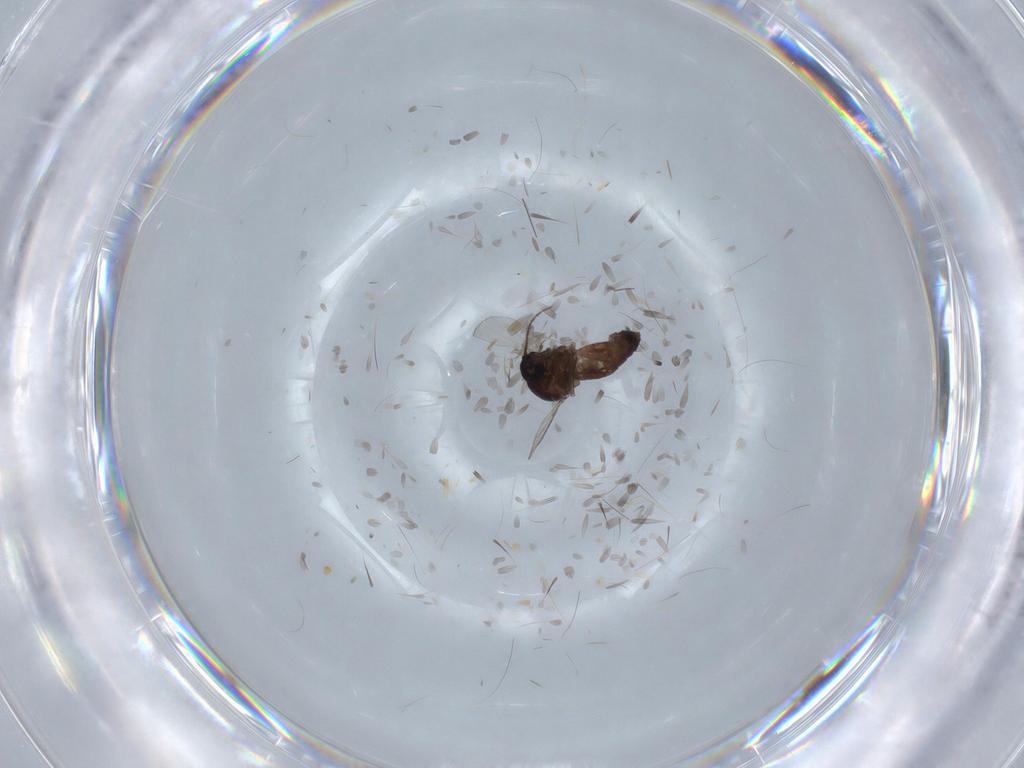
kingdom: Animalia
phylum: Arthropoda
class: Insecta
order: Diptera
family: Ceratopogonidae
